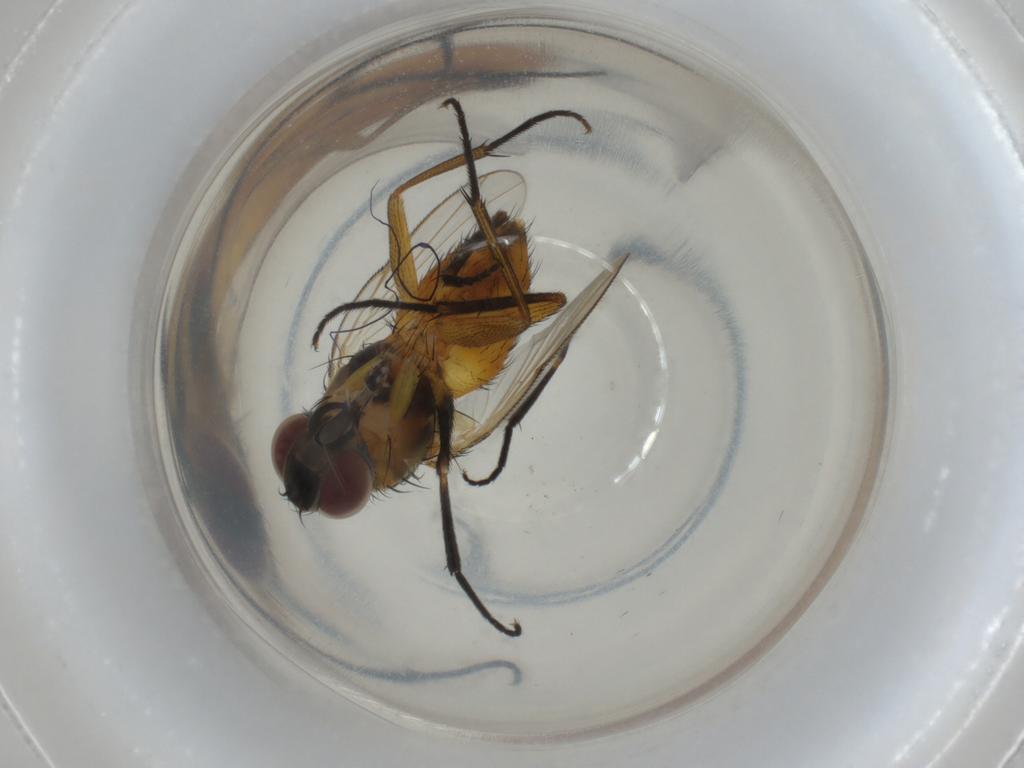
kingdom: Animalia
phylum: Arthropoda
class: Insecta
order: Diptera
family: Muscidae
